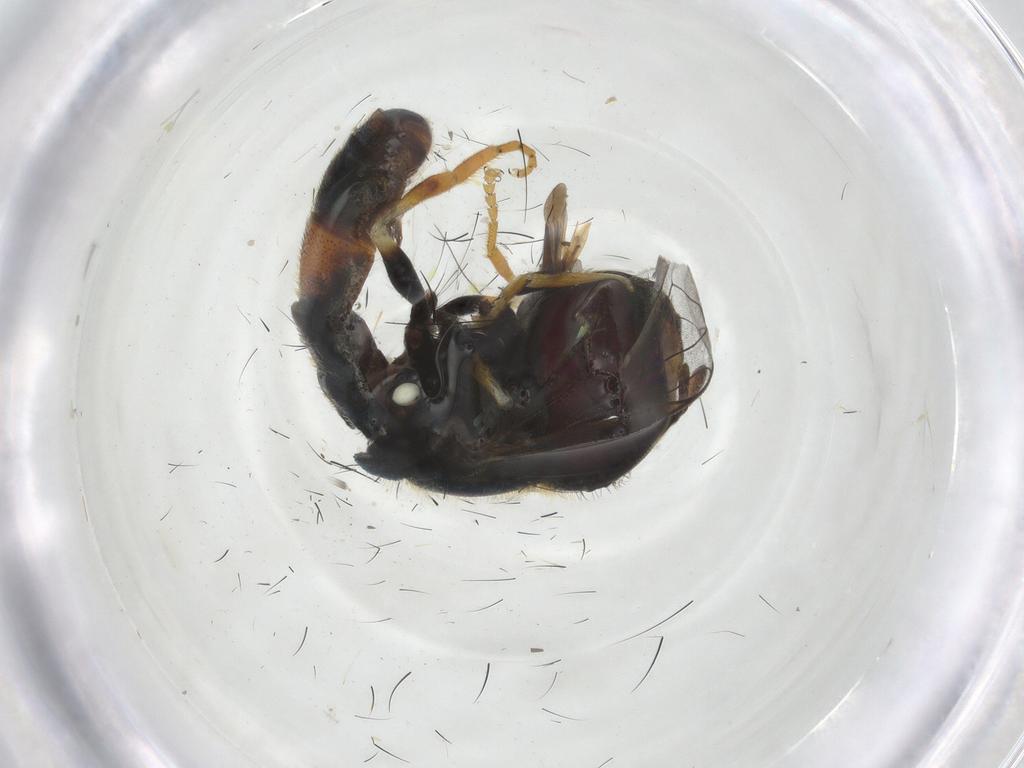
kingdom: Animalia
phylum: Arthropoda
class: Insecta
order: Diptera
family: Syrphidae
